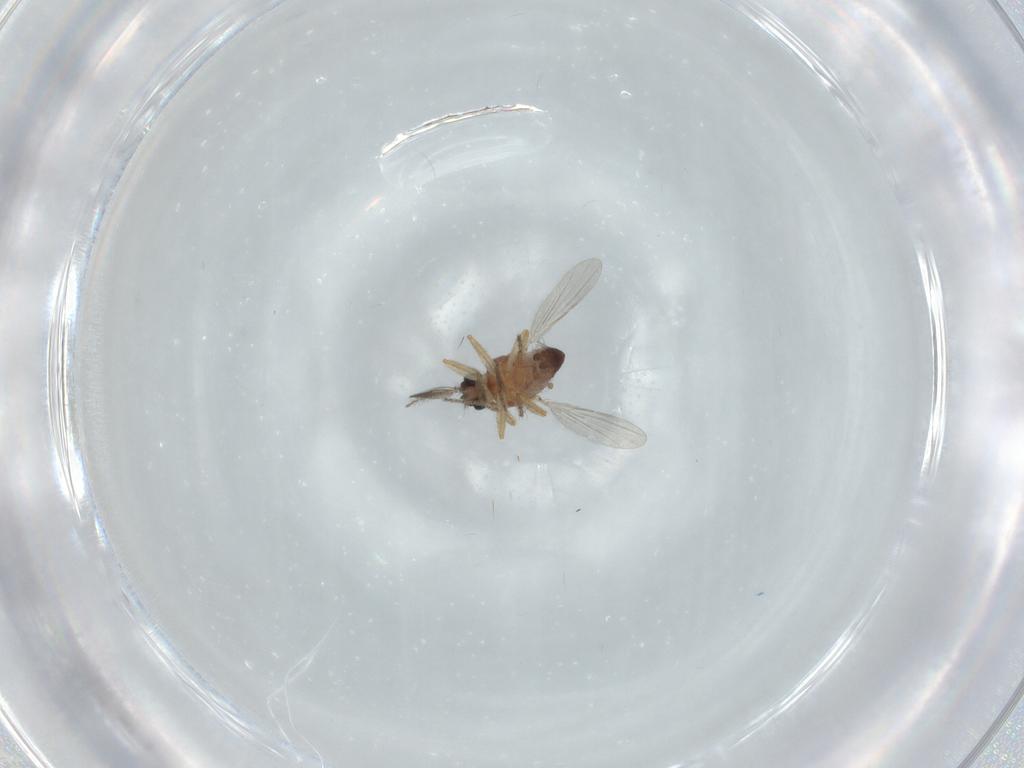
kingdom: Animalia
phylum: Arthropoda
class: Insecta
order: Diptera
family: Ceratopogonidae
